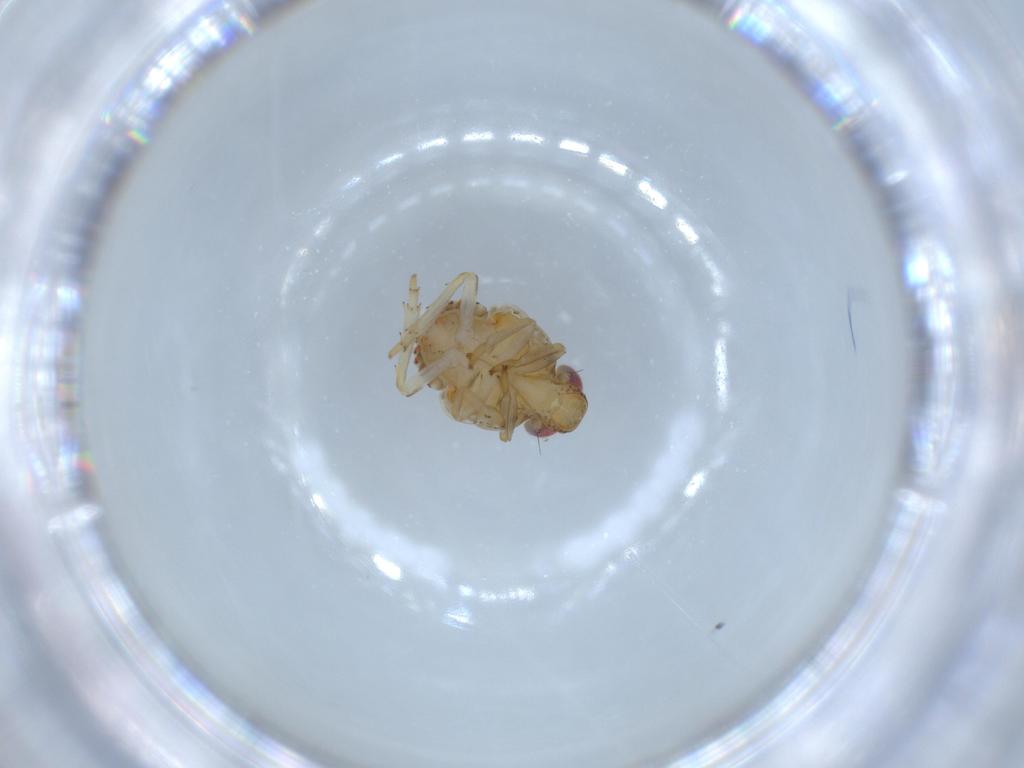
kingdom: Animalia
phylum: Arthropoda
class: Insecta
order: Hemiptera
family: Issidae
